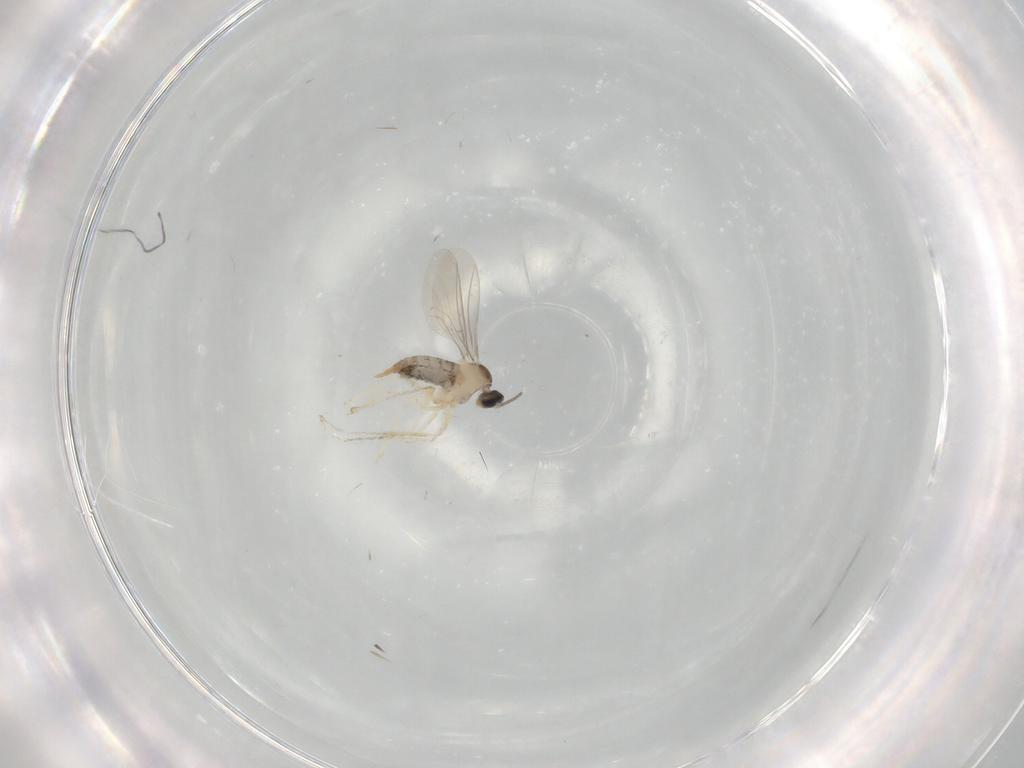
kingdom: Animalia
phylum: Arthropoda
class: Insecta
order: Diptera
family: Cecidomyiidae
